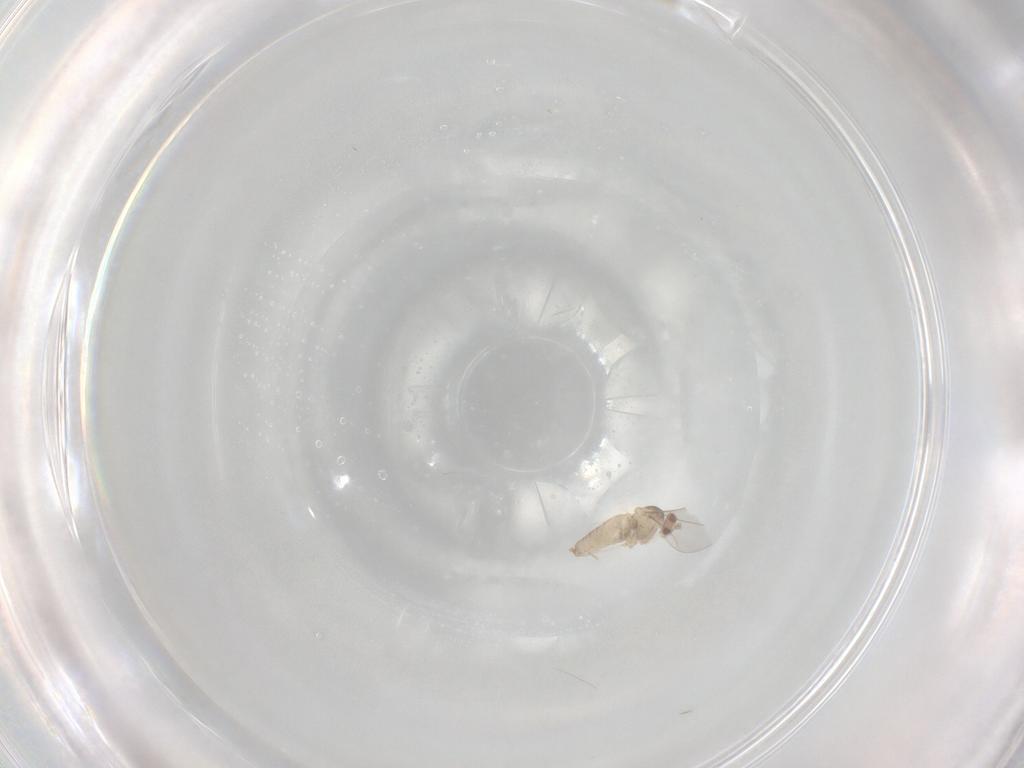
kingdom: Animalia
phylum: Arthropoda
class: Insecta
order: Diptera
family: Cecidomyiidae
